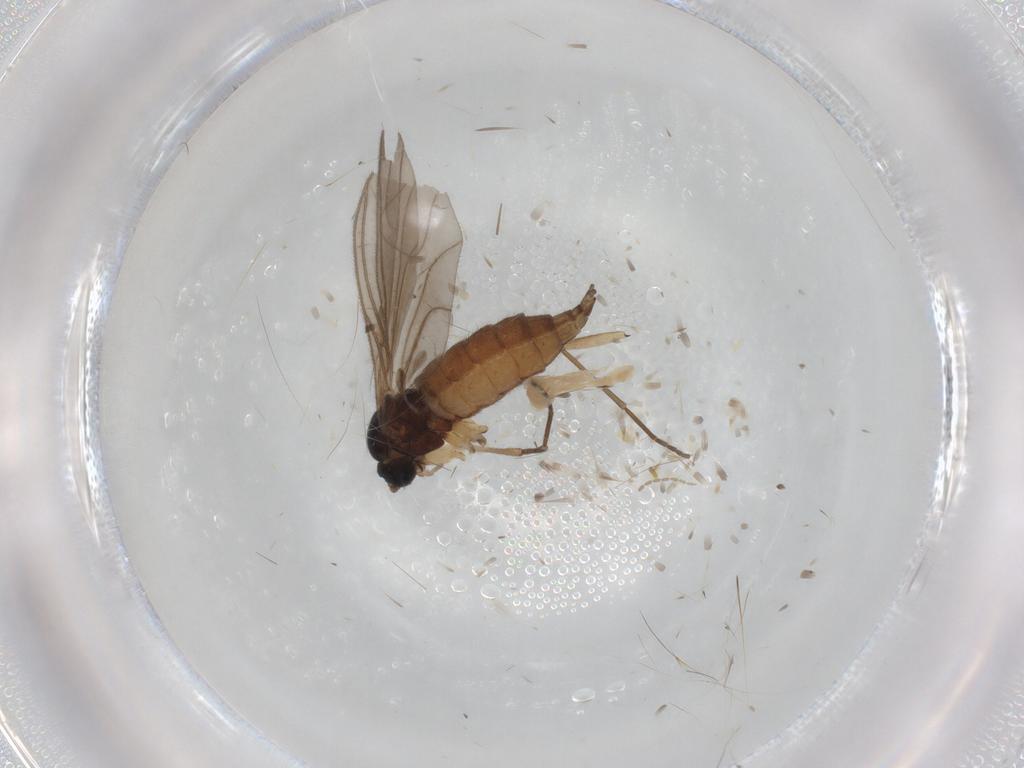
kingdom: Animalia
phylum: Arthropoda
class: Insecta
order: Diptera
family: Sciaridae
